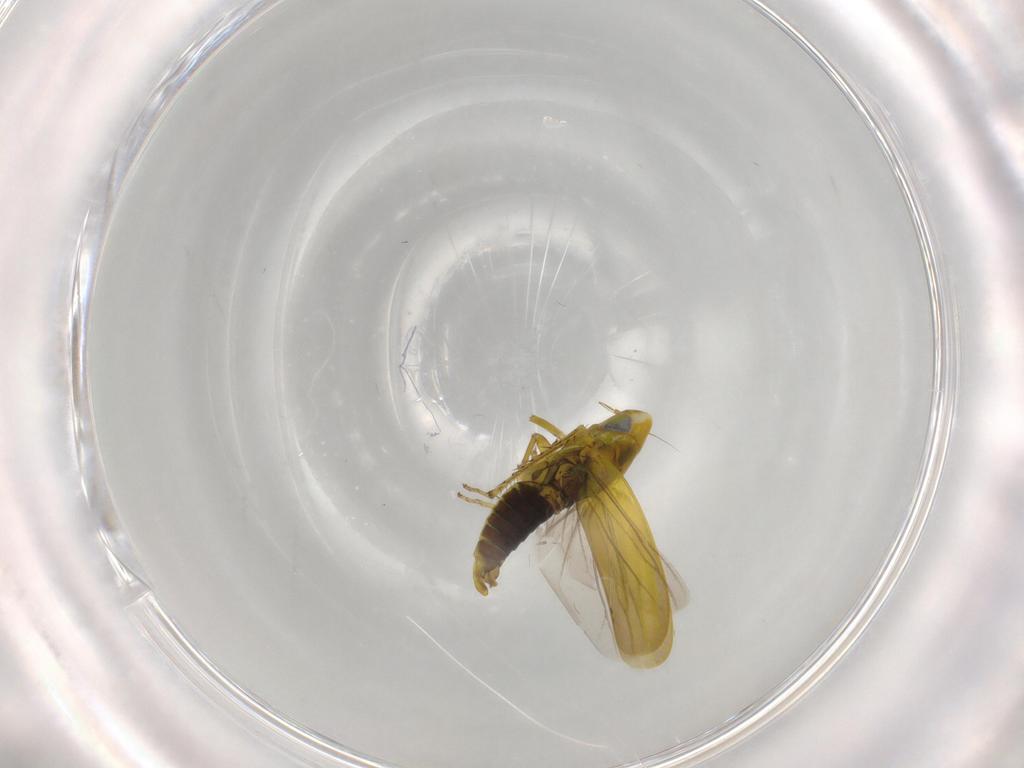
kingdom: Animalia
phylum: Arthropoda
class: Insecta
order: Hemiptera
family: Cicadellidae
